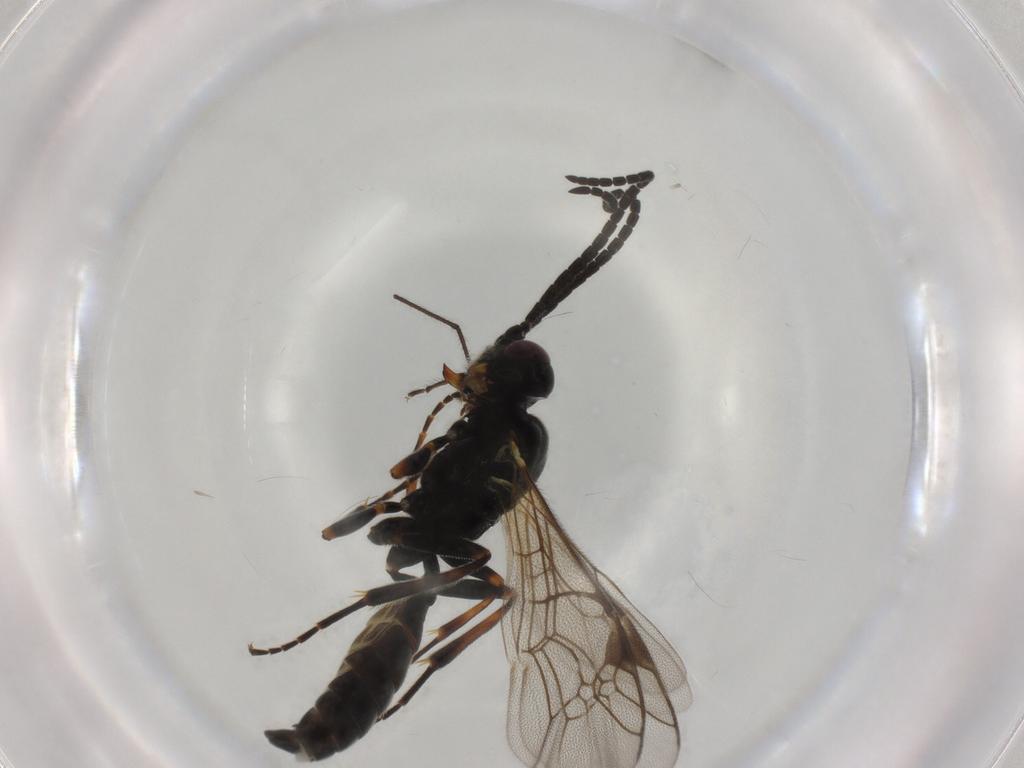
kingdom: Animalia
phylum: Arthropoda
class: Insecta
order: Hymenoptera
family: Ichneumonidae
